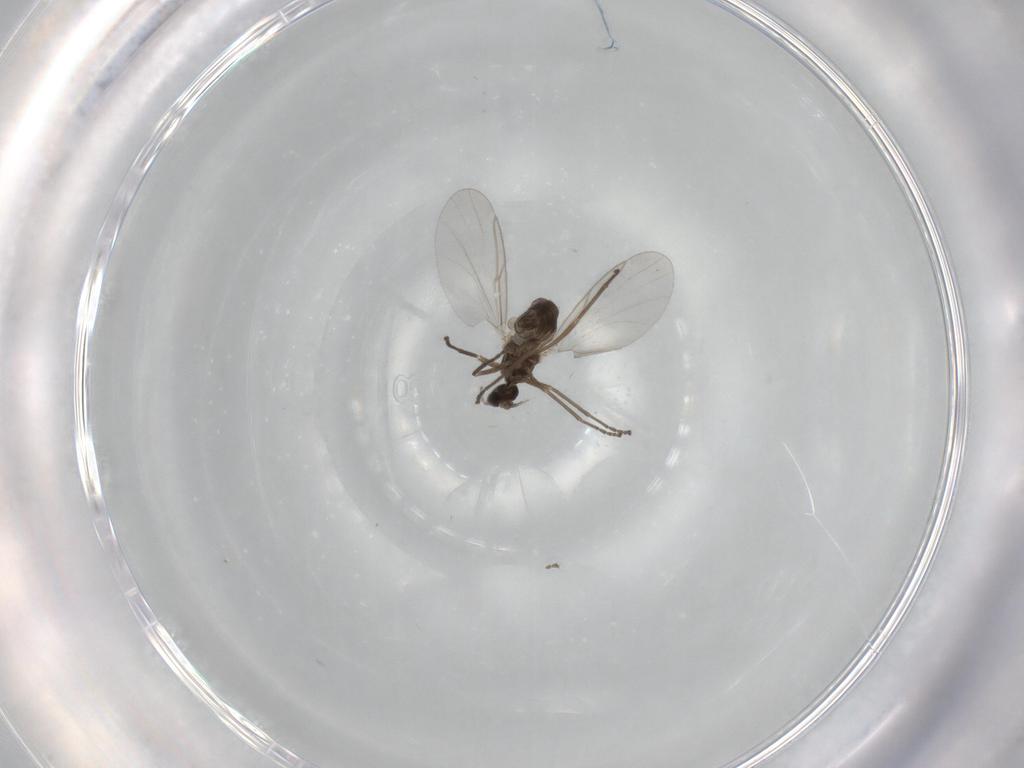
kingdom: Animalia
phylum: Arthropoda
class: Insecta
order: Diptera
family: Cecidomyiidae
